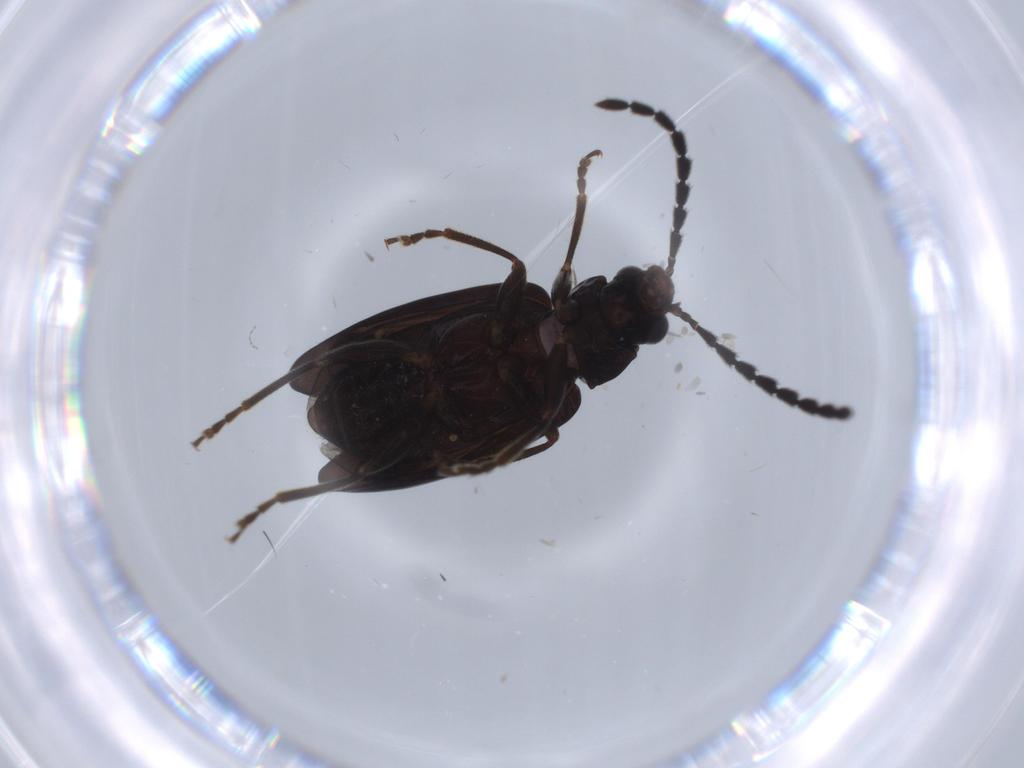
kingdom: Animalia
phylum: Arthropoda
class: Insecta
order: Coleoptera
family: Chrysomelidae
